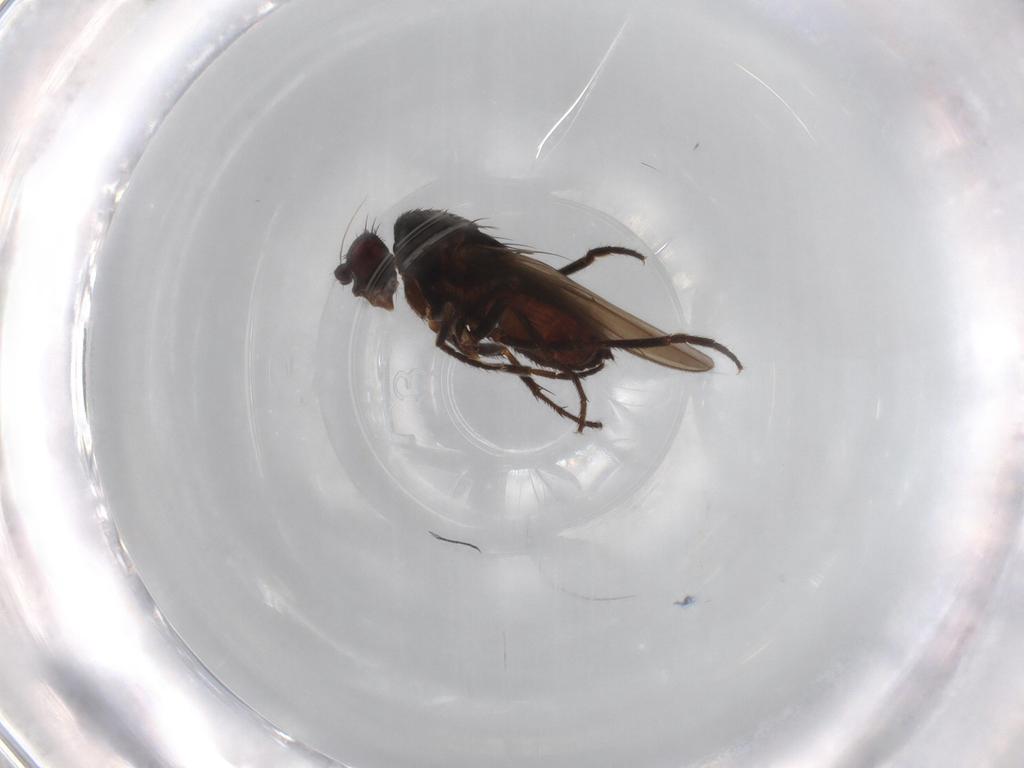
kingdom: Animalia
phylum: Arthropoda
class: Insecta
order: Diptera
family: Sphaeroceridae
